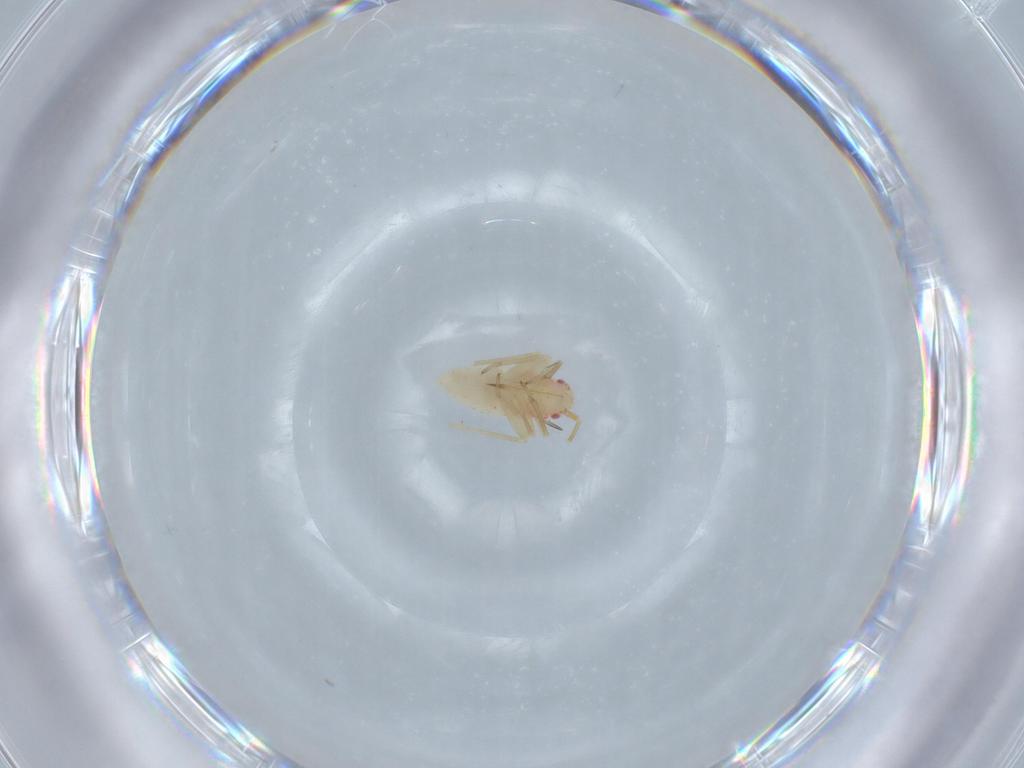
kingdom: Animalia
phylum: Arthropoda
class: Insecta
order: Hemiptera
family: Miridae
